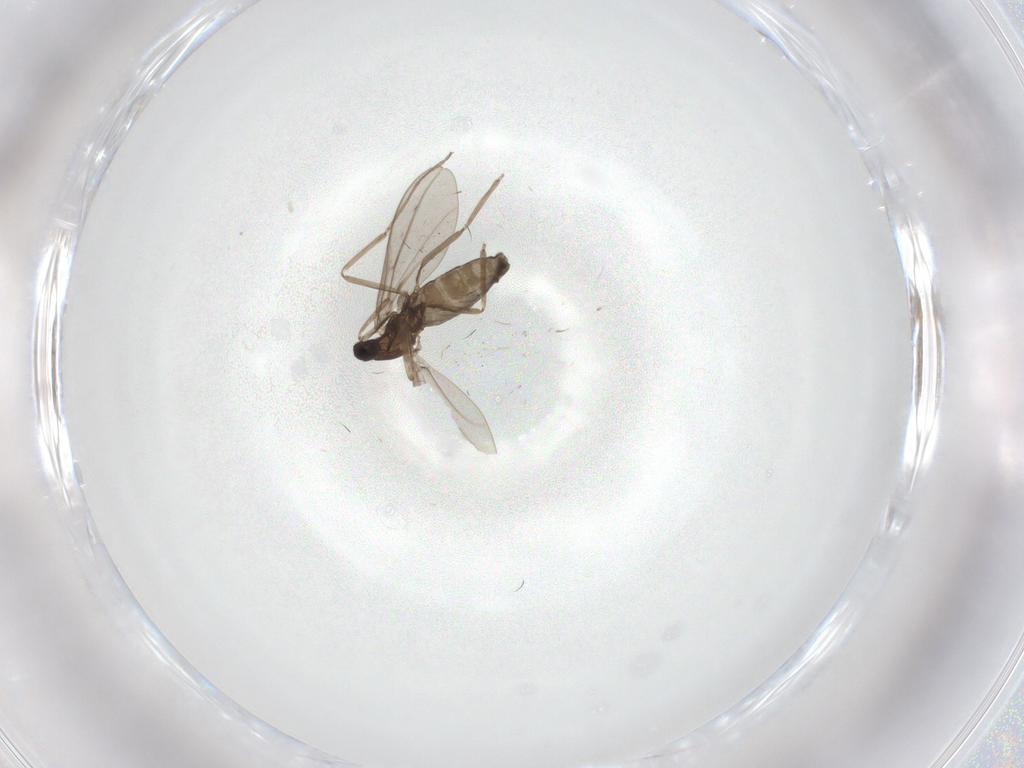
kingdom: Animalia
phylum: Arthropoda
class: Insecta
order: Diptera
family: Cecidomyiidae
